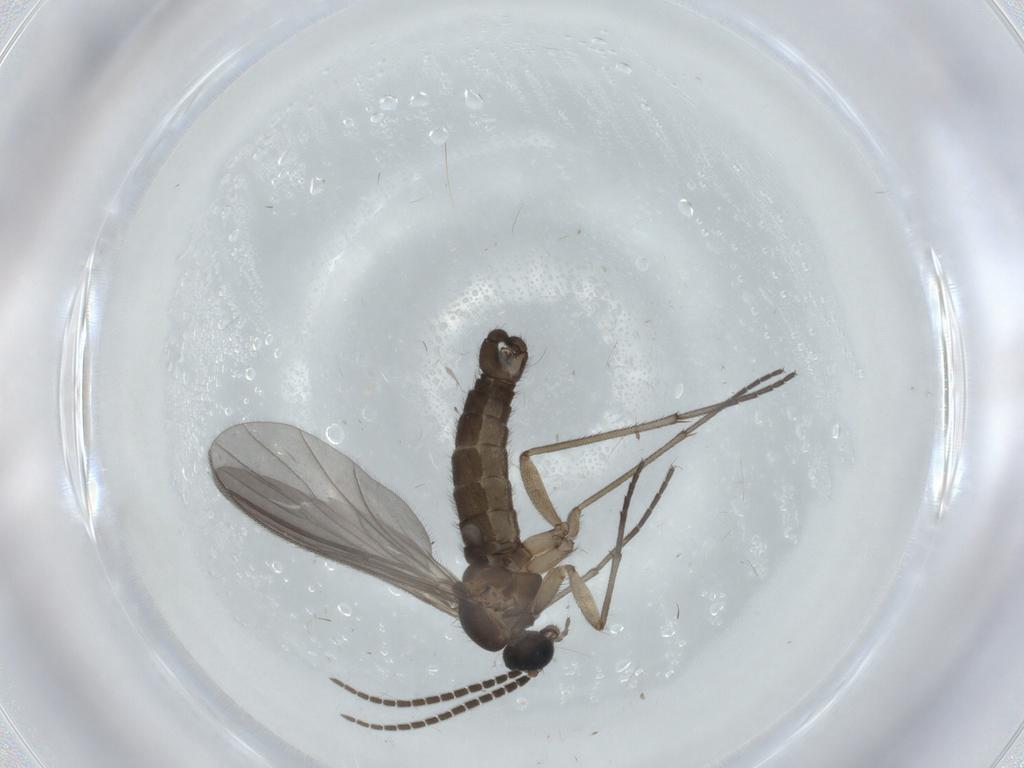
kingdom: Animalia
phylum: Arthropoda
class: Insecta
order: Diptera
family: Sciaridae
